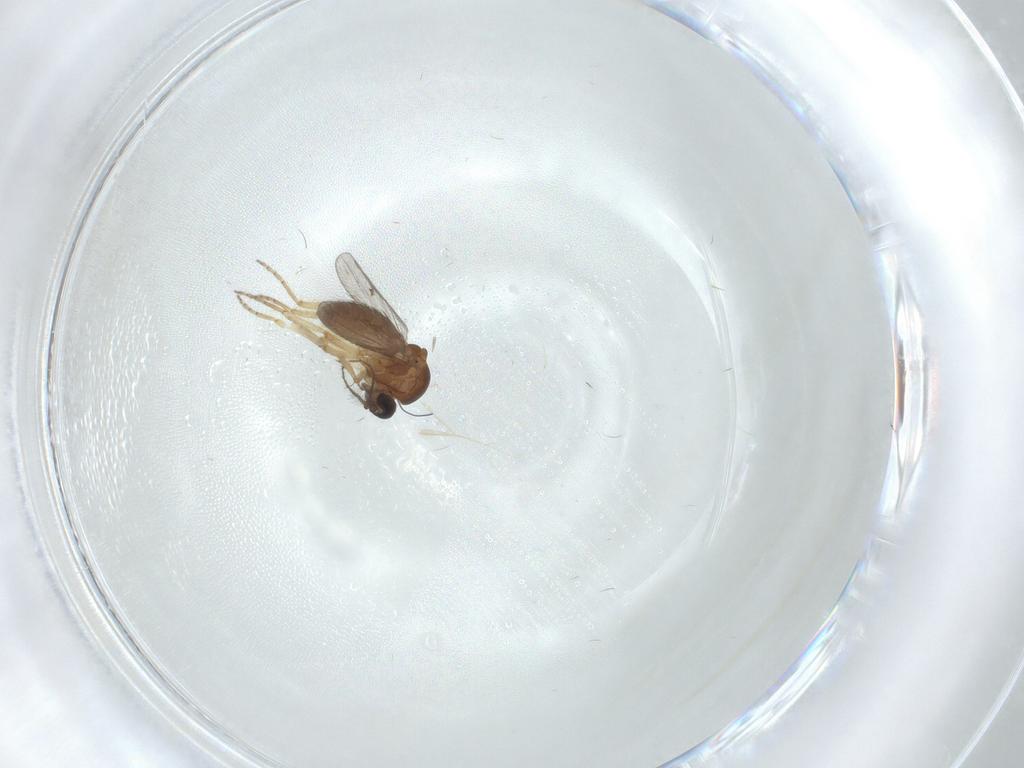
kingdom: Animalia
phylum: Arthropoda
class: Insecta
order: Diptera
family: Ceratopogonidae
